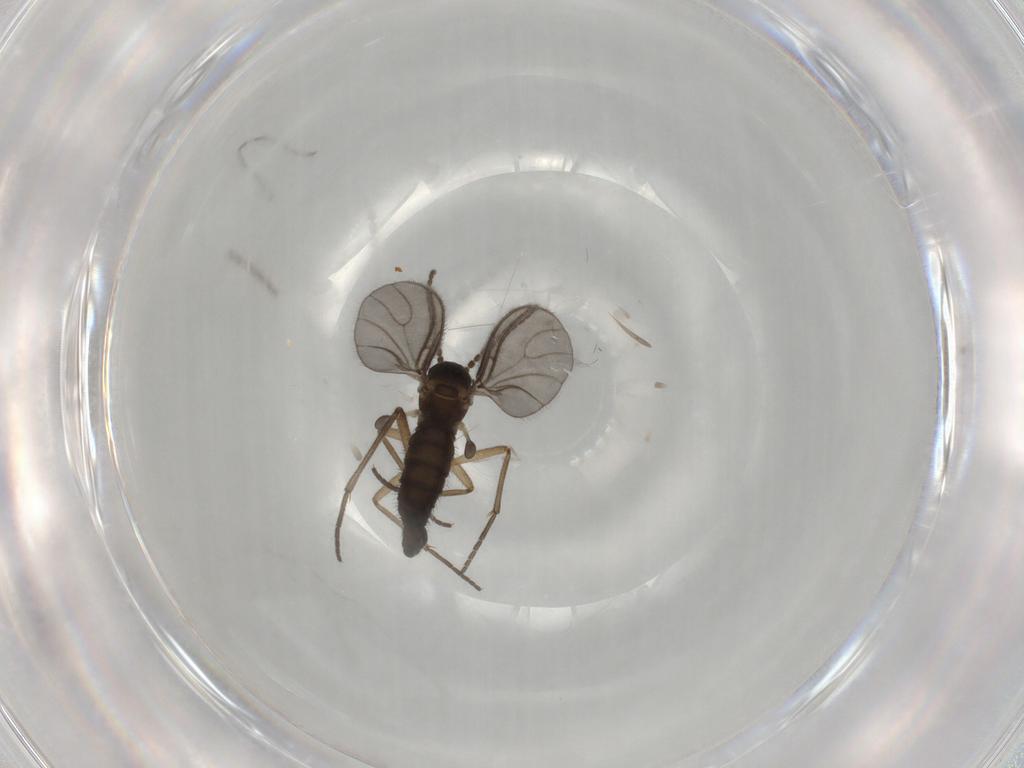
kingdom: Animalia
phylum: Arthropoda
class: Insecta
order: Diptera
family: Sciaridae
